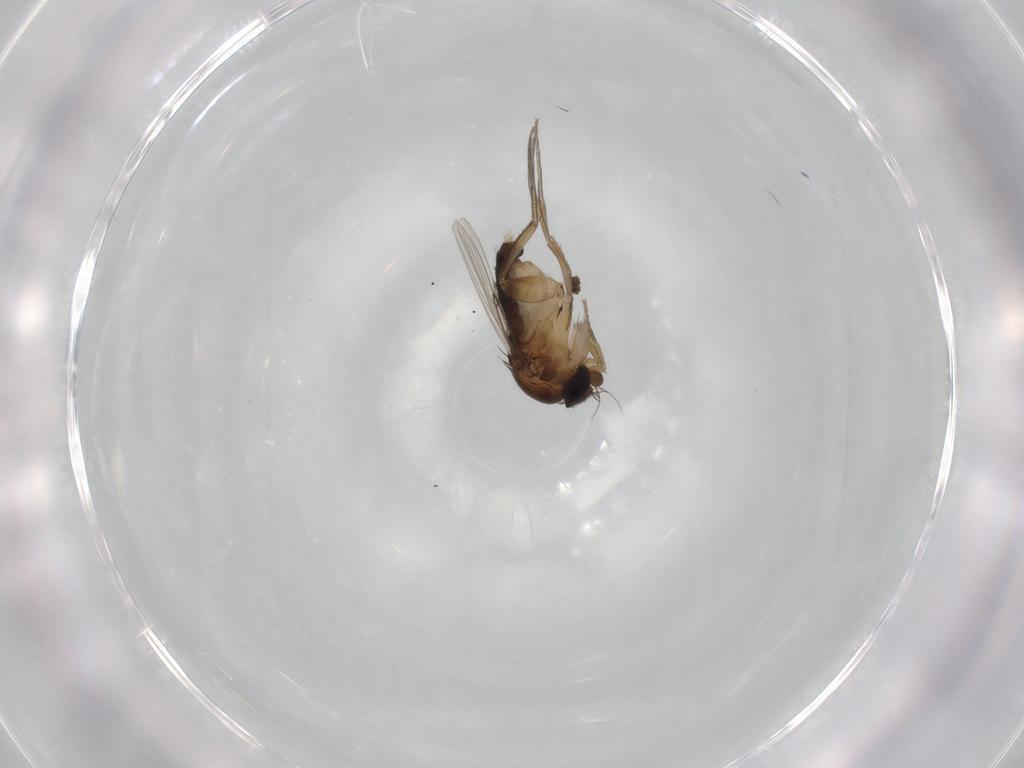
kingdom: Animalia
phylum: Arthropoda
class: Insecta
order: Diptera
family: Phoridae
